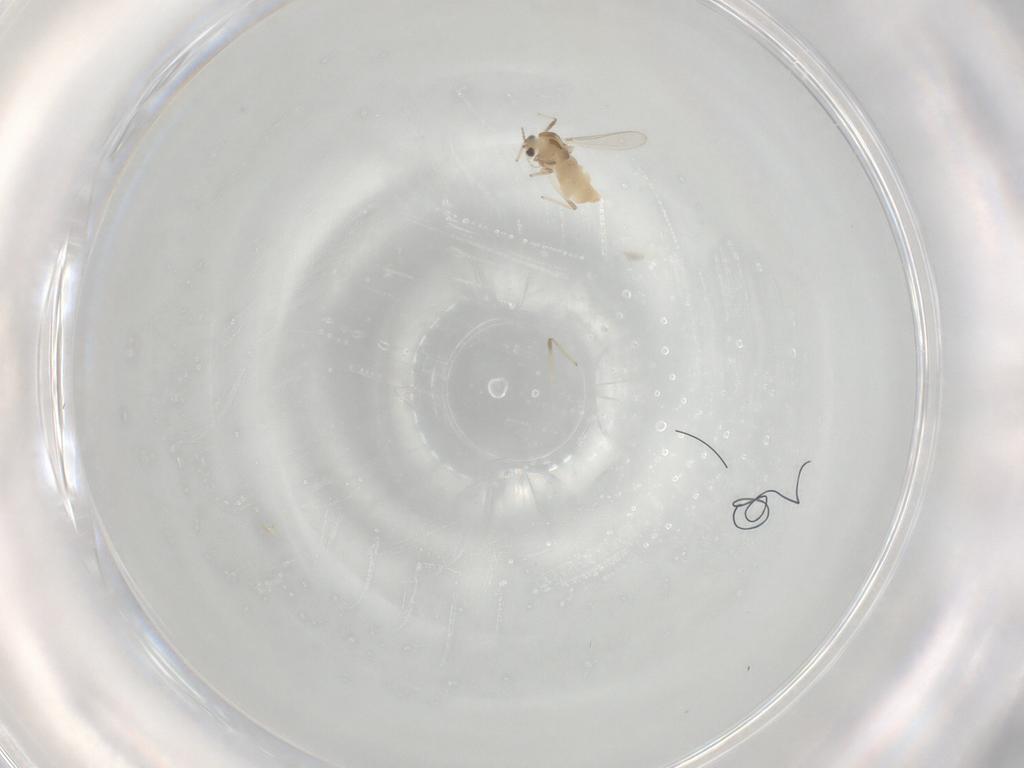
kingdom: Animalia
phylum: Arthropoda
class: Insecta
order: Diptera
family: Chironomidae
